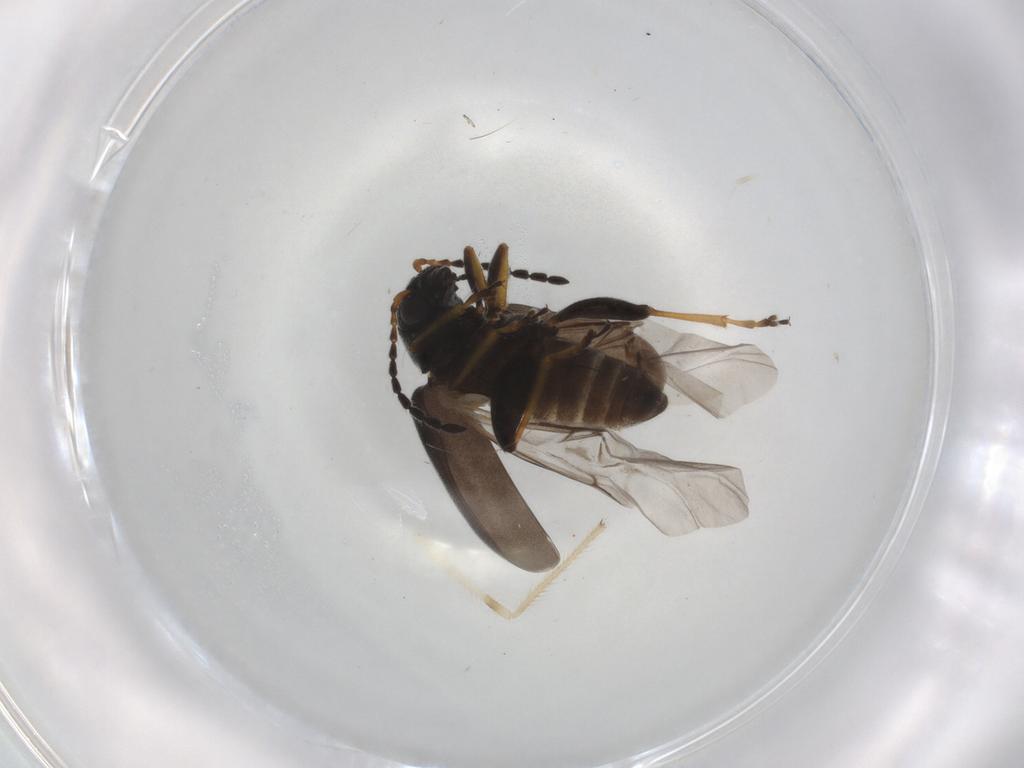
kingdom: Animalia
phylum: Arthropoda
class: Insecta
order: Coleoptera
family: Chrysomelidae
